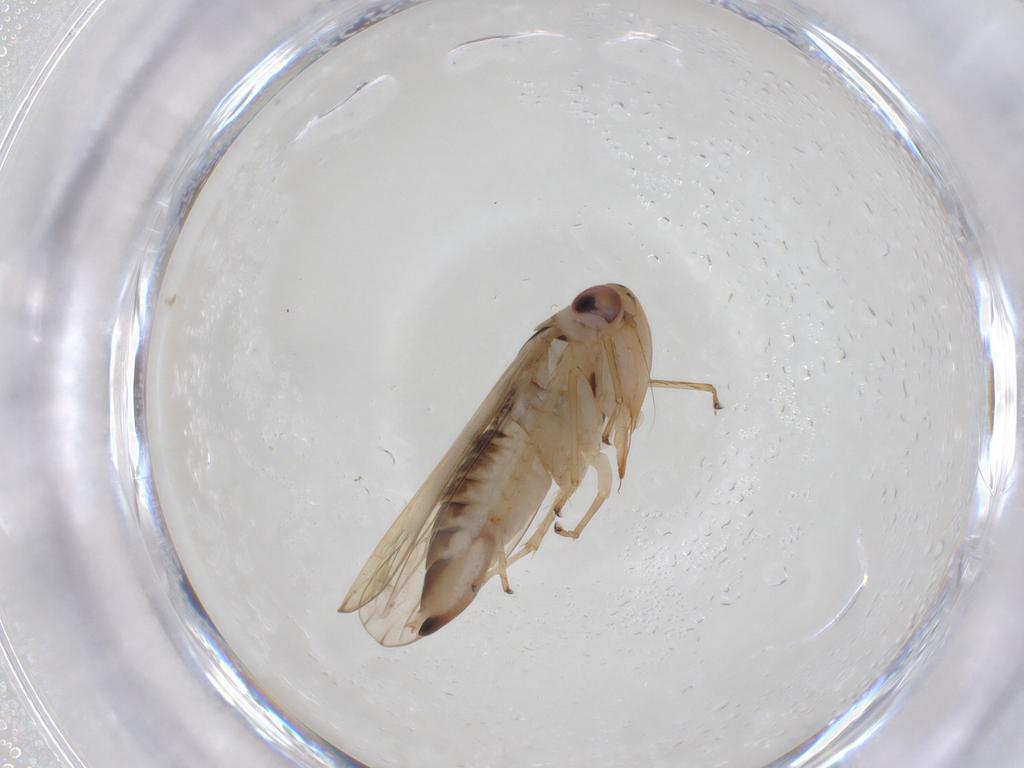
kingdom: Animalia
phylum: Arthropoda
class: Insecta
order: Hemiptera
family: Cicadellidae
